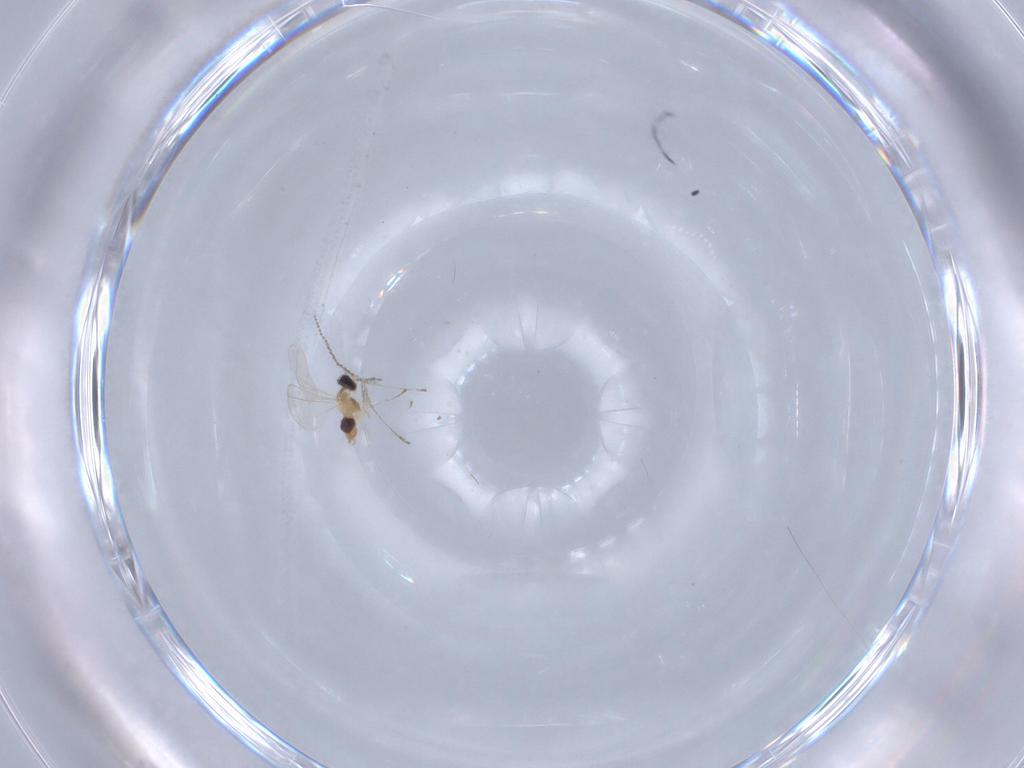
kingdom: Animalia
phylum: Arthropoda
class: Insecta
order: Diptera
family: Cecidomyiidae
